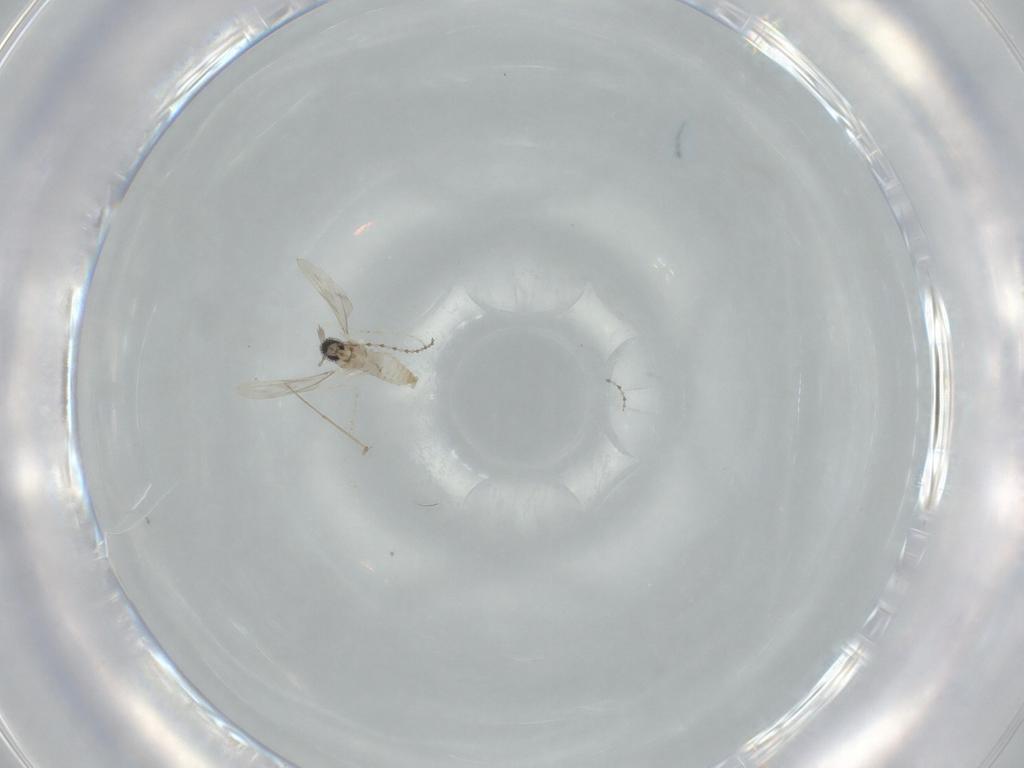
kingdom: Animalia
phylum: Arthropoda
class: Insecta
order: Diptera
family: Cecidomyiidae
